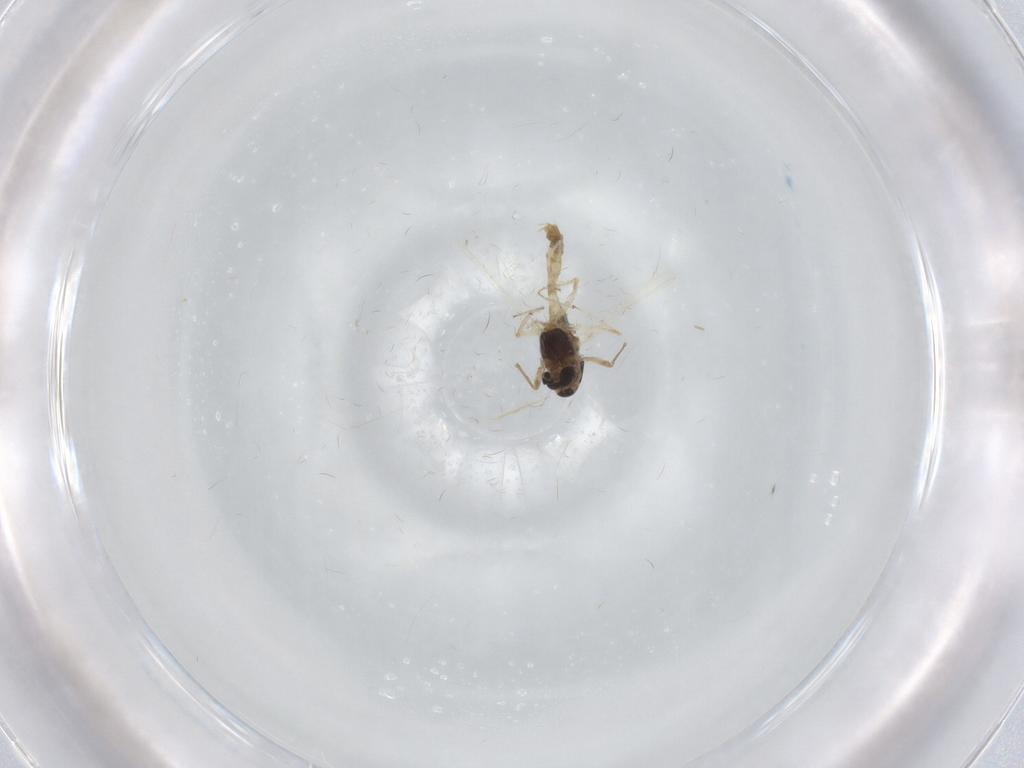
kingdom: Animalia
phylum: Arthropoda
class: Insecta
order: Diptera
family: Chironomidae
